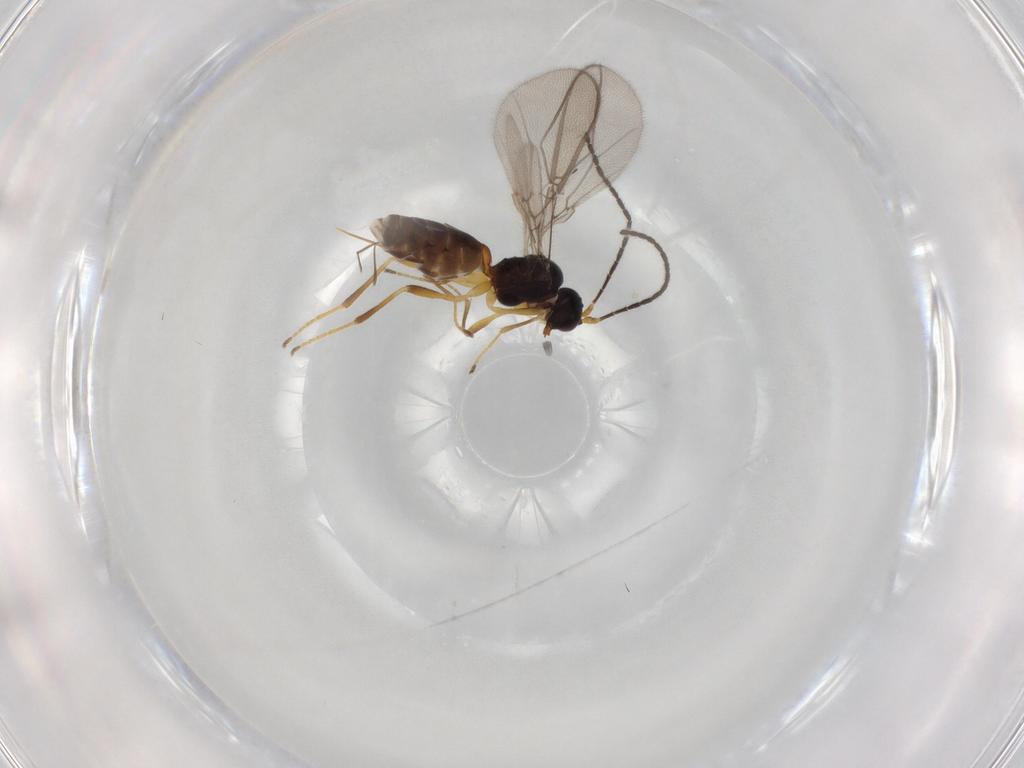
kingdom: Animalia
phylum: Arthropoda
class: Insecta
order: Hymenoptera
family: Braconidae
